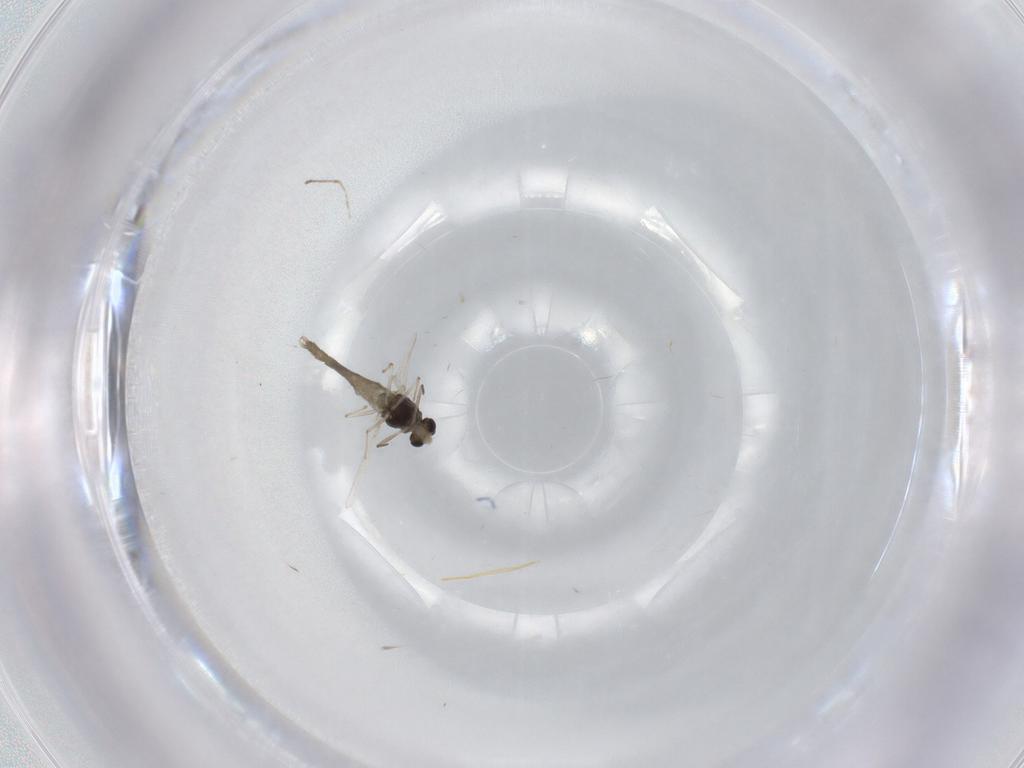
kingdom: Animalia
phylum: Arthropoda
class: Insecta
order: Diptera
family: Chironomidae
